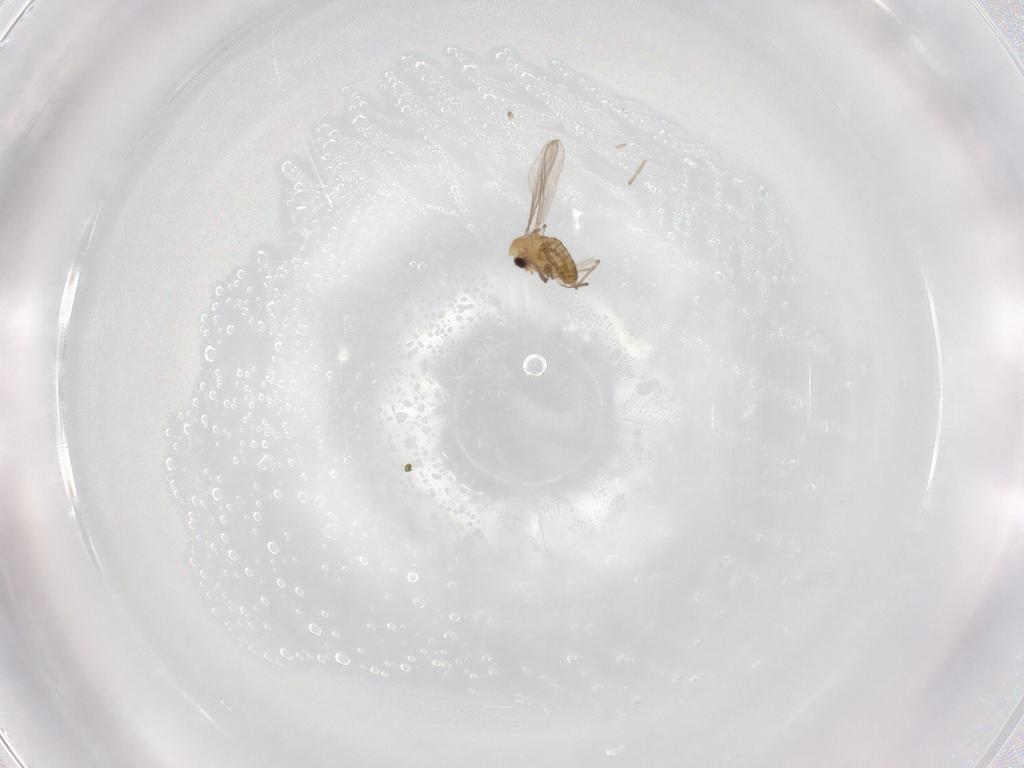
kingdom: Animalia
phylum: Arthropoda
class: Insecta
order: Diptera
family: Chironomidae
